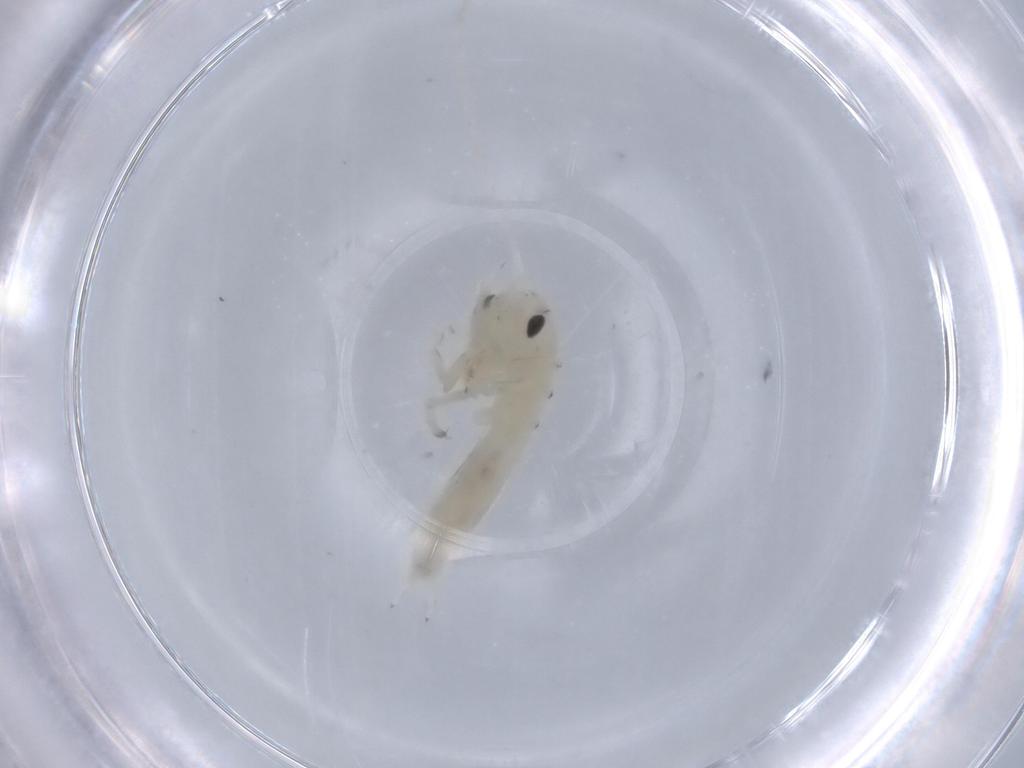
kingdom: Animalia
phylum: Arthropoda
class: Insecta
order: Orthoptera
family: Oecanthidae
